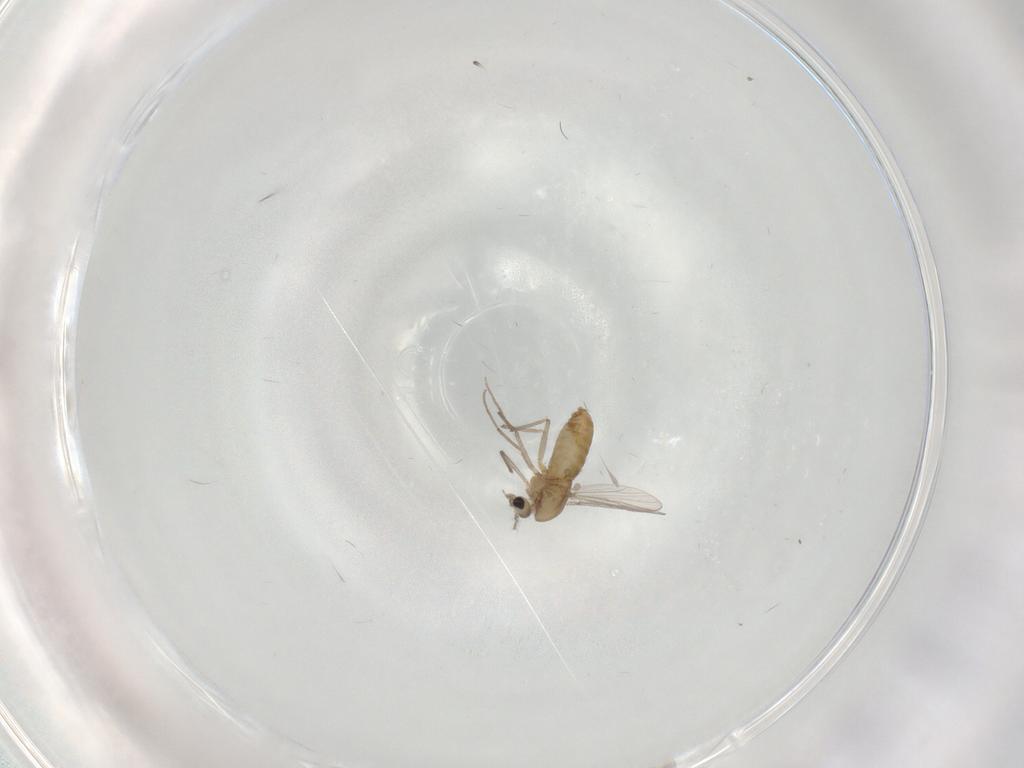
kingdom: Animalia
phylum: Arthropoda
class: Insecta
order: Diptera
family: Chironomidae
